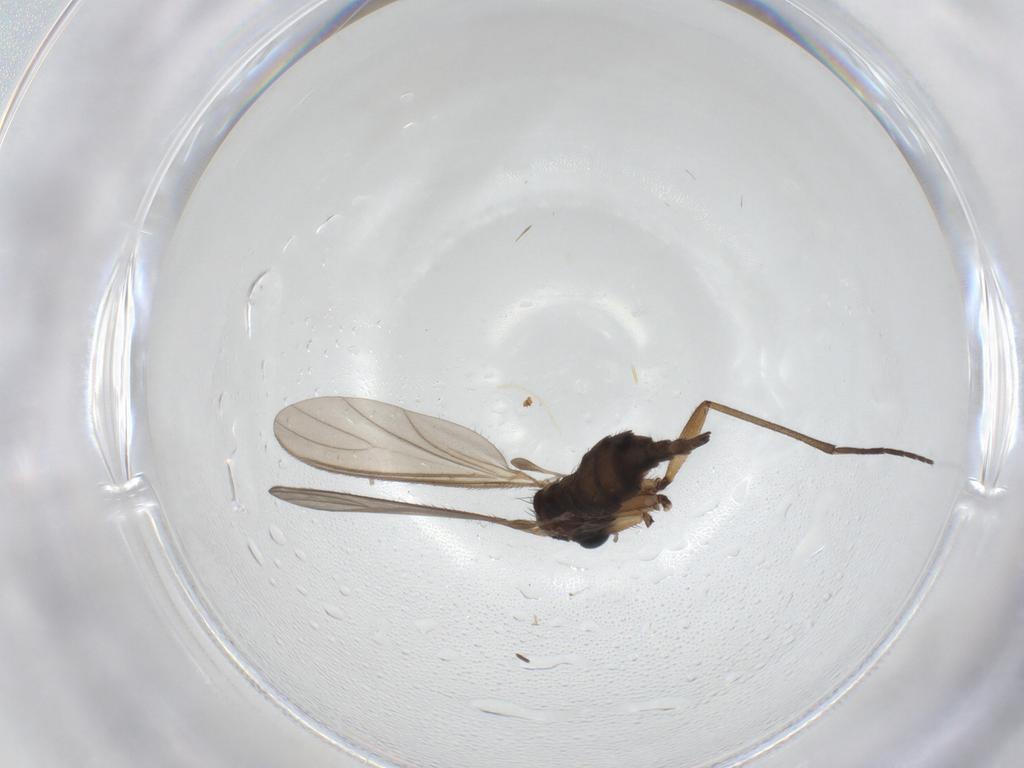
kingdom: Animalia
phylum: Arthropoda
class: Insecta
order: Diptera
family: Sciaridae
